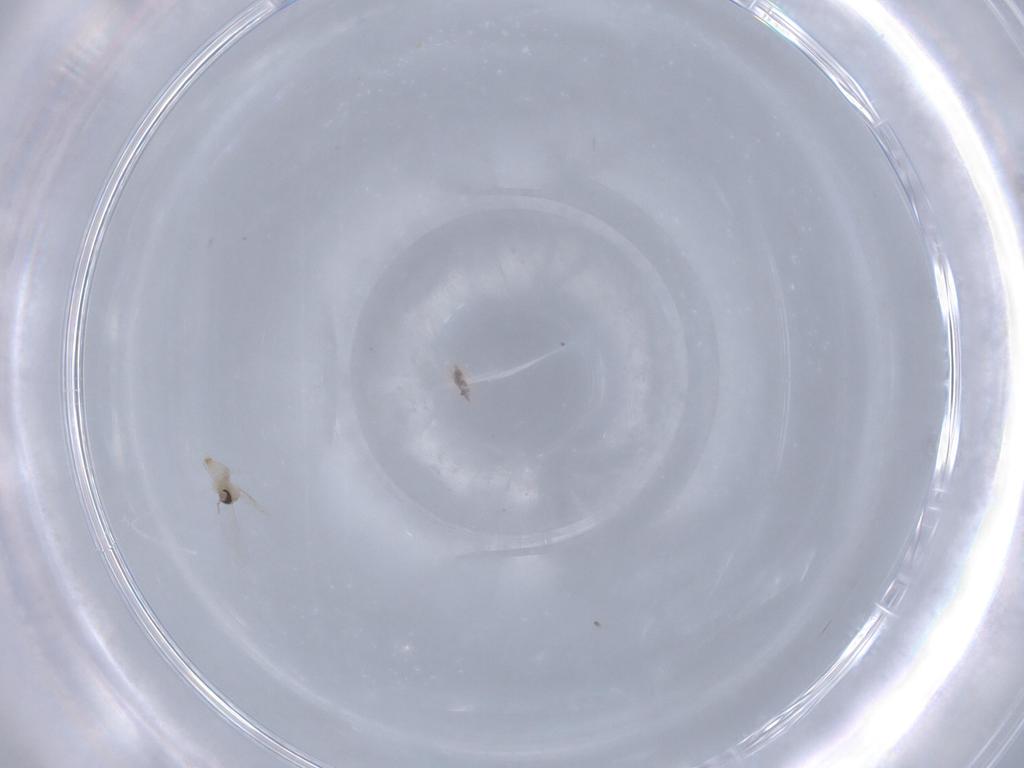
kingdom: Animalia
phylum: Arthropoda
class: Insecta
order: Diptera
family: Cecidomyiidae
